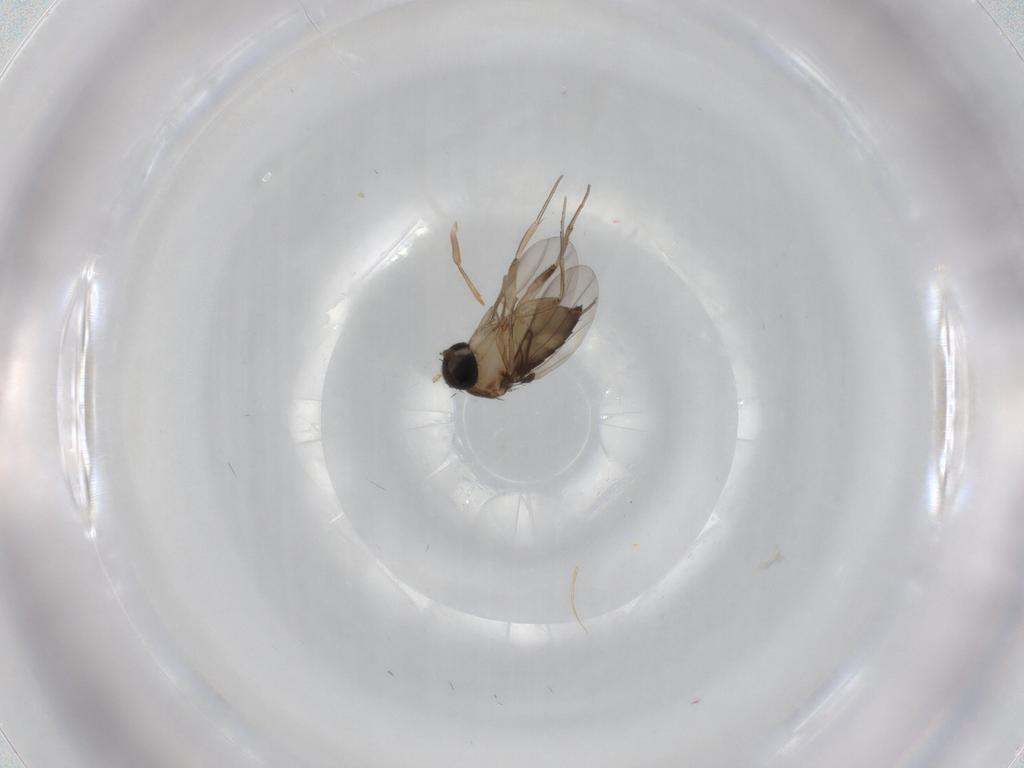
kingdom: Animalia
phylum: Arthropoda
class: Insecta
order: Diptera
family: Phoridae
